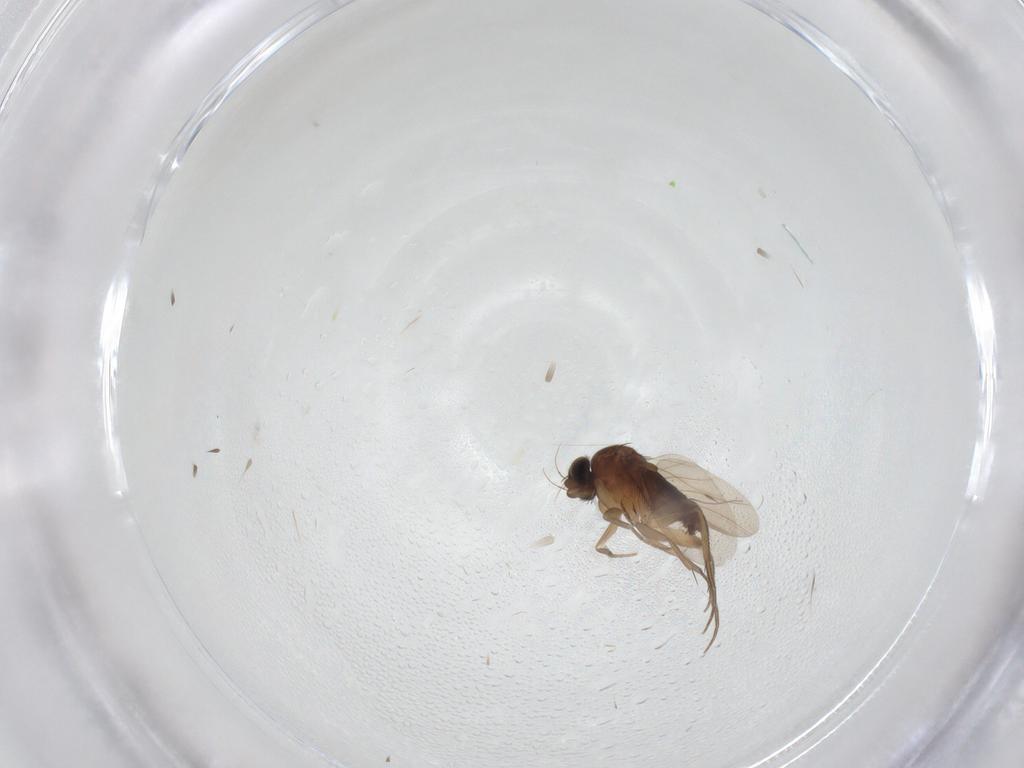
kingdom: Animalia
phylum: Arthropoda
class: Insecta
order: Diptera
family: Phoridae
